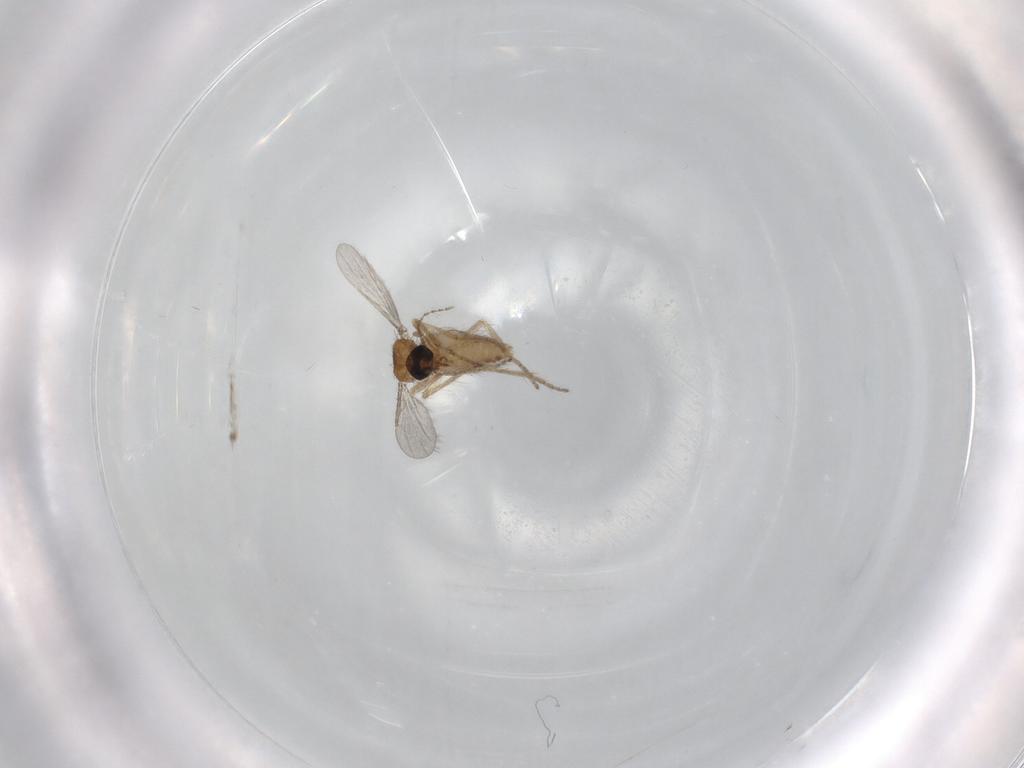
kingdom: Animalia
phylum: Arthropoda
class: Insecta
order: Diptera
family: Ceratopogonidae
